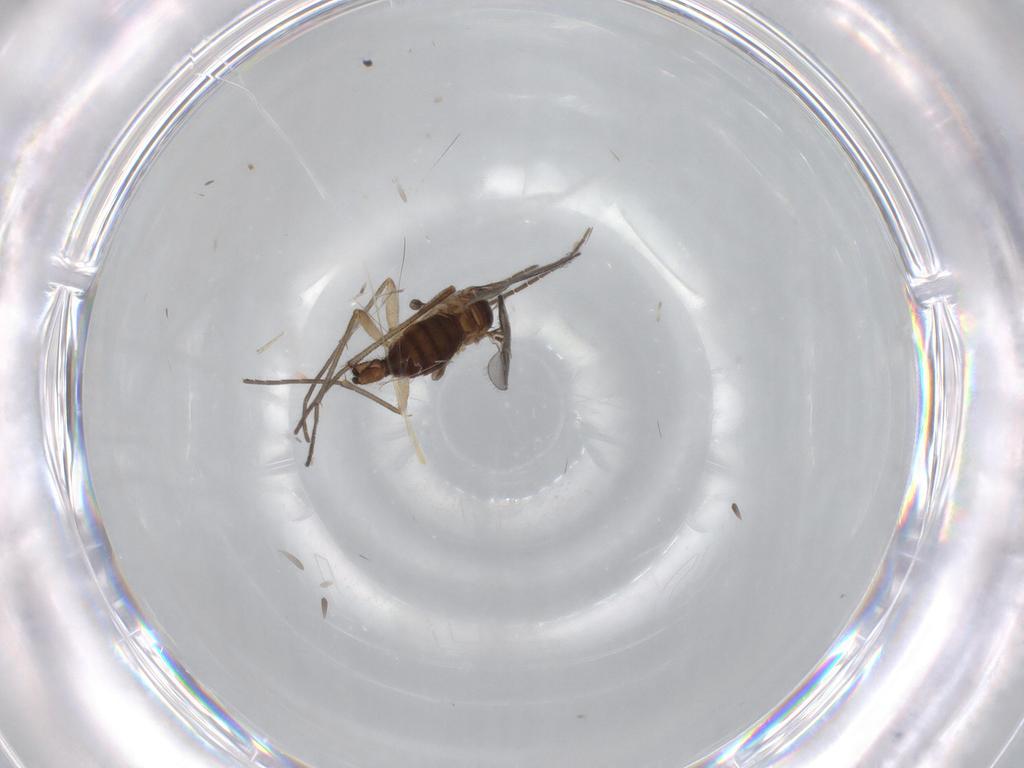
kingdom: Animalia
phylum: Arthropoda
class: Insecta
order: Diptera
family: Sciaridae
